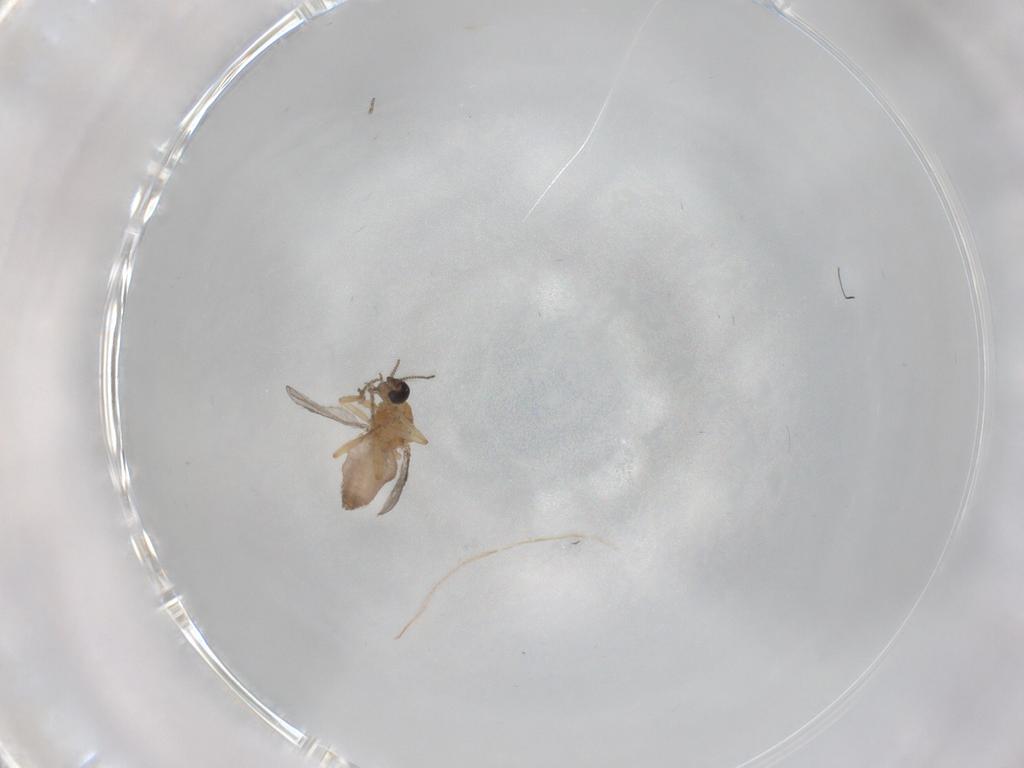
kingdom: Animalia
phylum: Arthropoda
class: Insecta
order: Diptera
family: Ceratopogonidae
